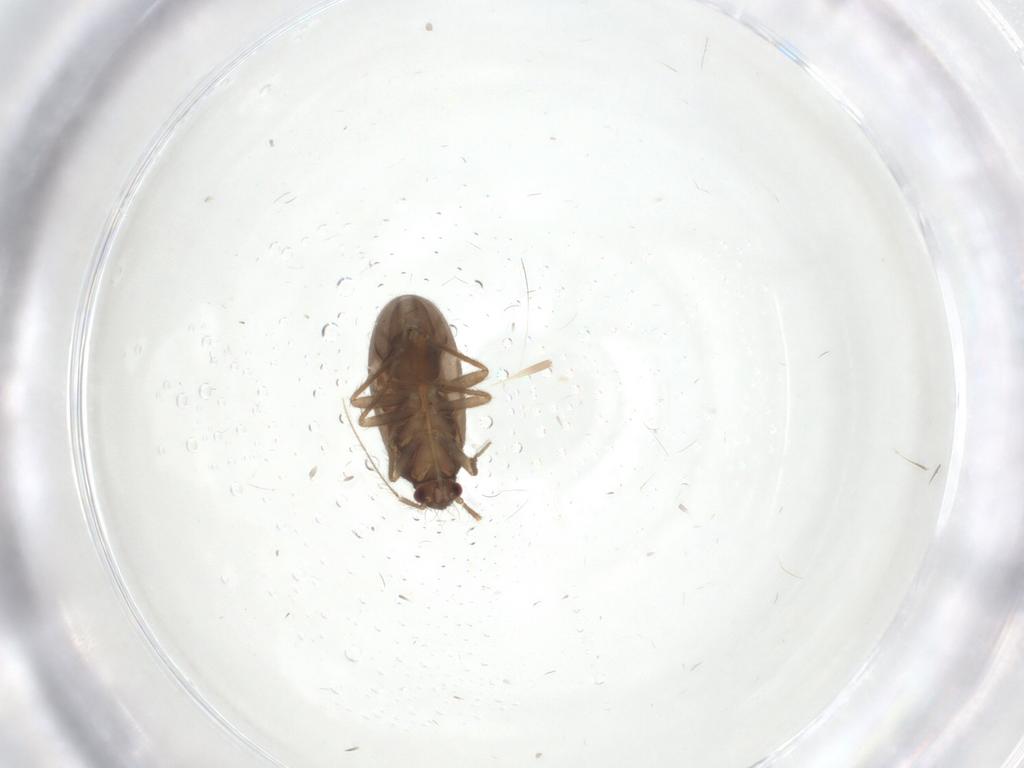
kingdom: Animalia
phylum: Arthropoda
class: Insecta
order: Hemiptera
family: Ceratocombidae
